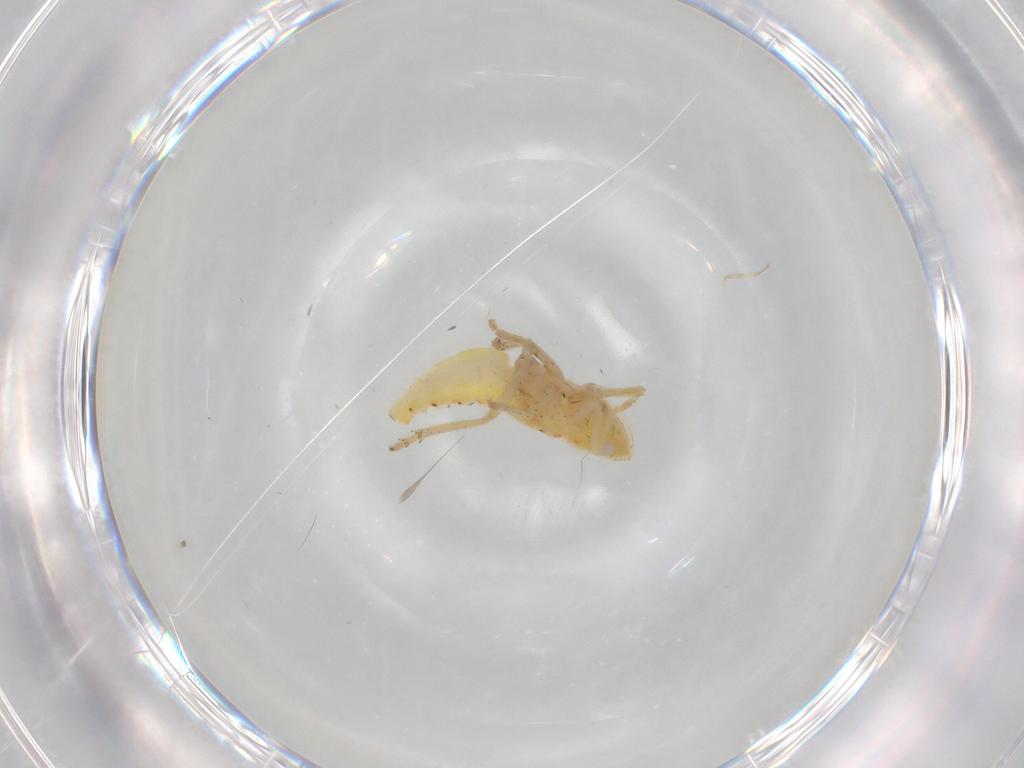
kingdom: Animalia
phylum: Arthropoda
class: Insecta
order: Hemiptera
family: Tropiduchidae
